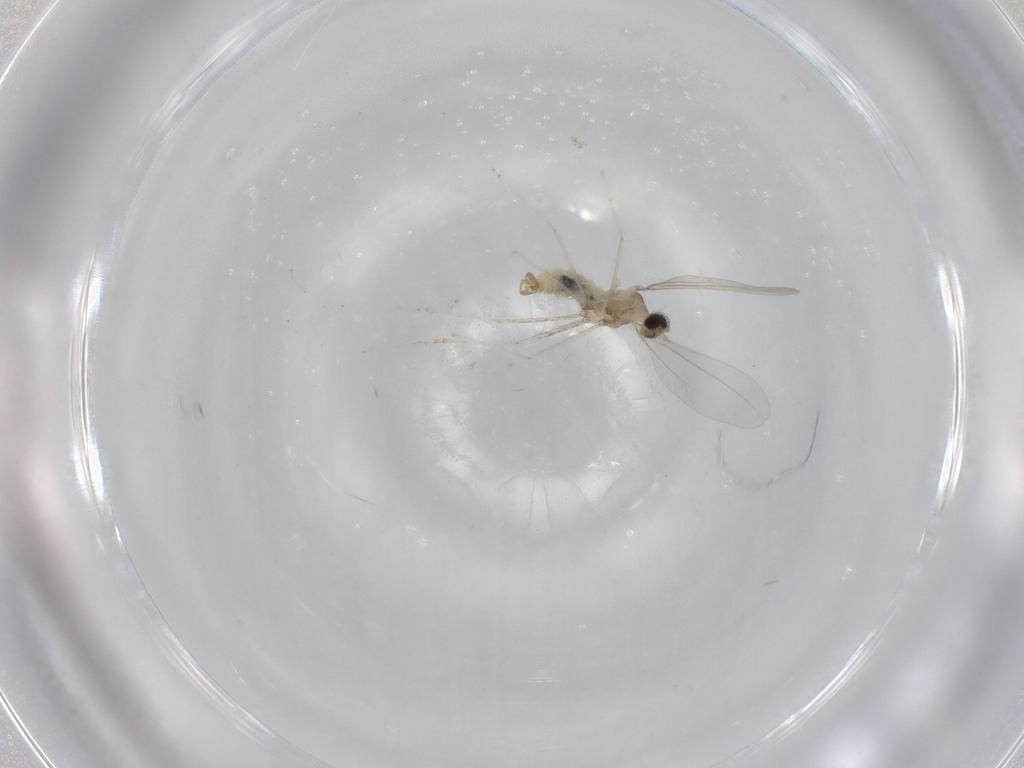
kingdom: Animalia
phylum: Arthropoda
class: Insecta
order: Diptera
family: Cecidomyiidae
